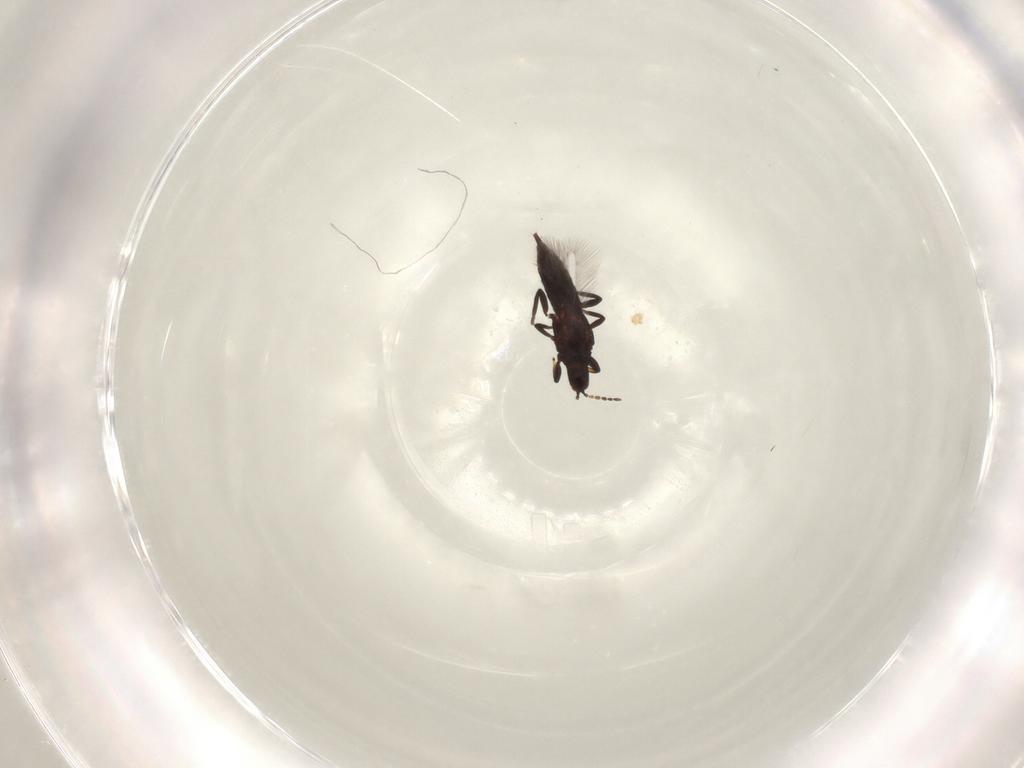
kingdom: Animalia
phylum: Arthropoda
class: Insecta
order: Thysanoptera
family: Phlaeothripidae
